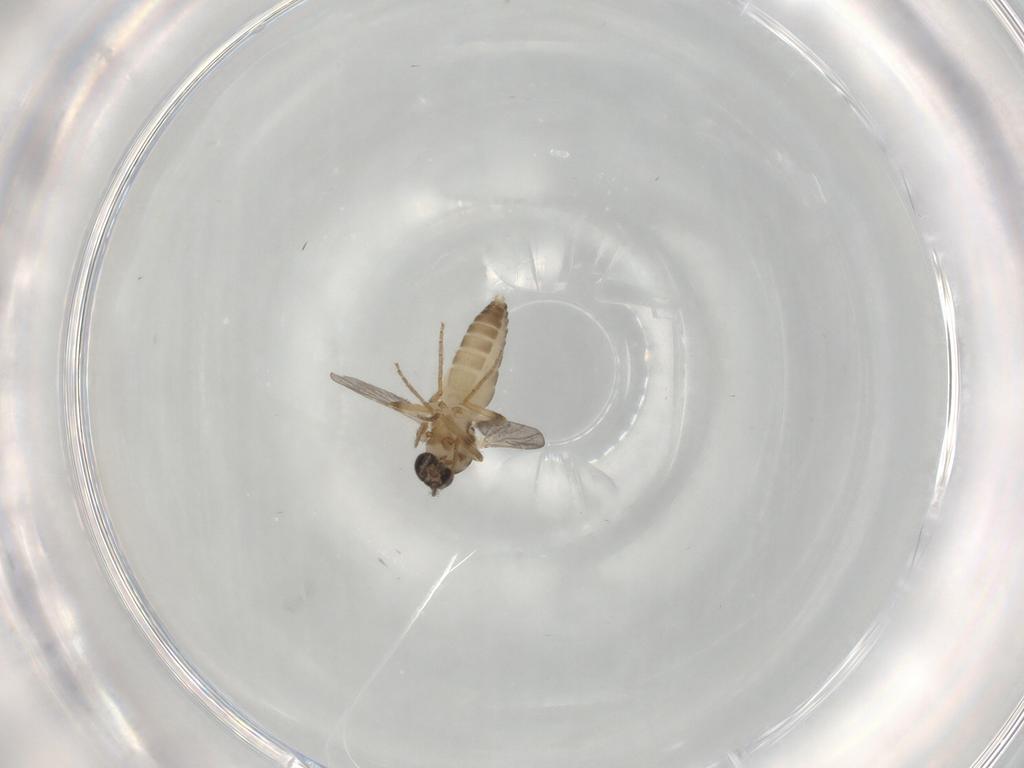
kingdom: Animalia
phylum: Arthropoda
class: Insecta
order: Diptera
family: Ceratopogonidae
